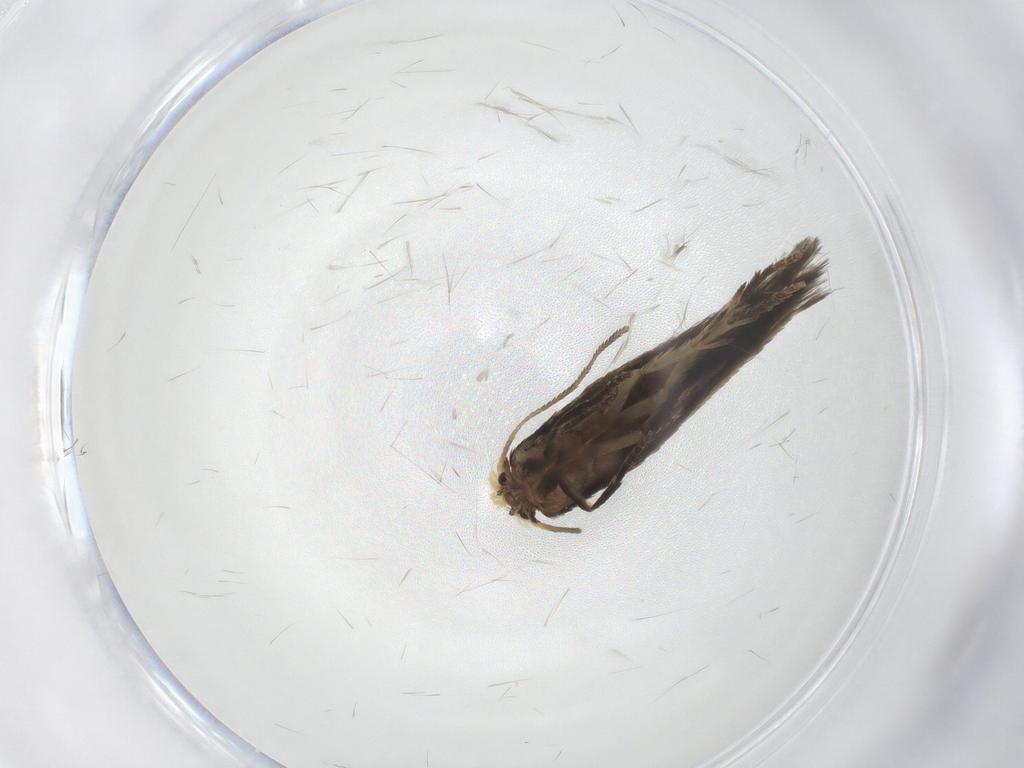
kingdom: Animalia
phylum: Arthropoda
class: Insecta
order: Lepidoptera
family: Nepticulidae
